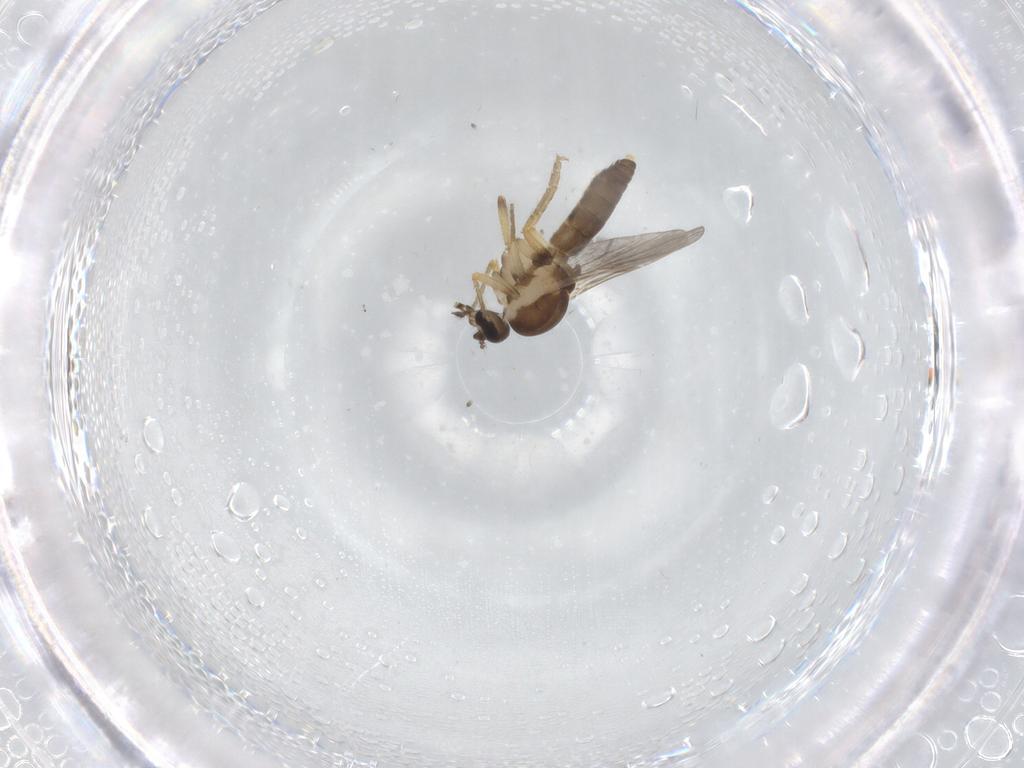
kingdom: Animalia
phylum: Arthropoda
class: Insecta
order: Diptera
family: Ceratopogonidae
